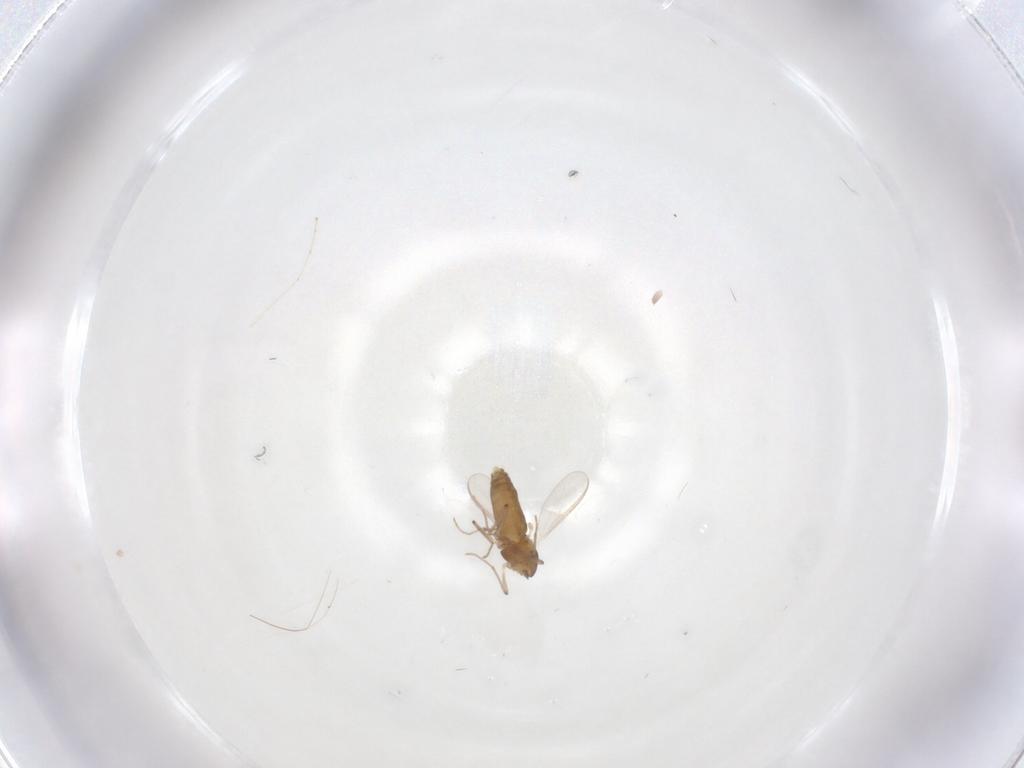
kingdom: Animalia
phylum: Arthropoda
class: Insecta
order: Diptera
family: Chironomidae
